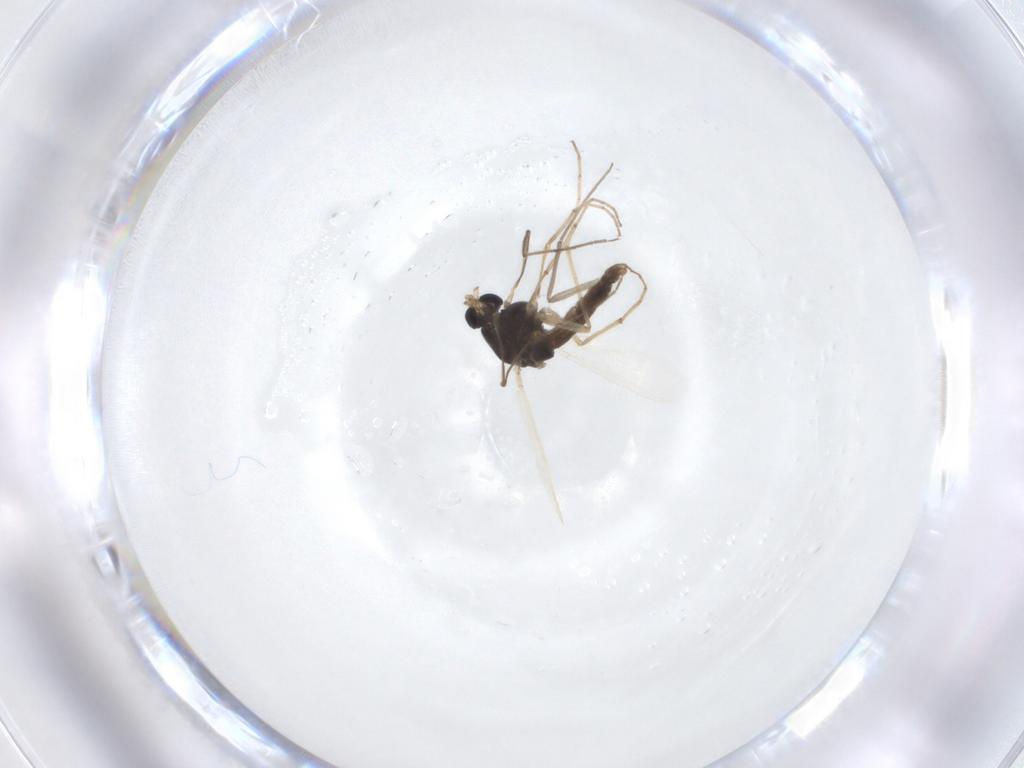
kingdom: Animalia
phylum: Arthropoda
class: Insecta
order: Diptera
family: Chironomidae
